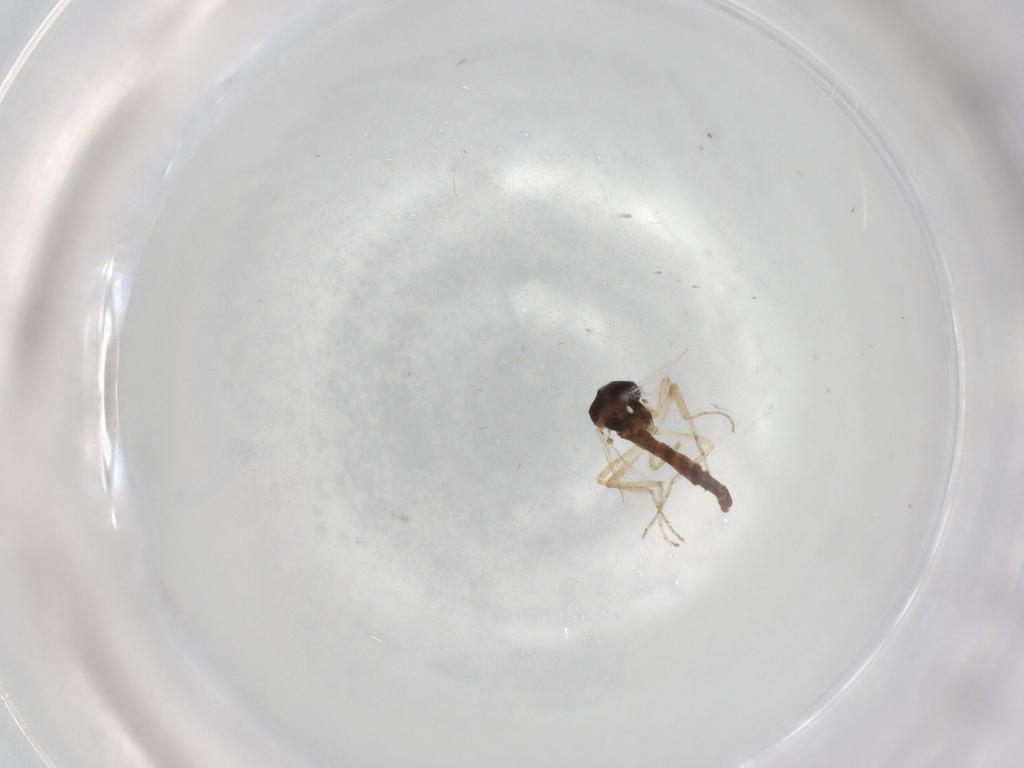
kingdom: Animalia
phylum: Arthropoda
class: Insecta
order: Diptera
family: Ceratopogonidae
